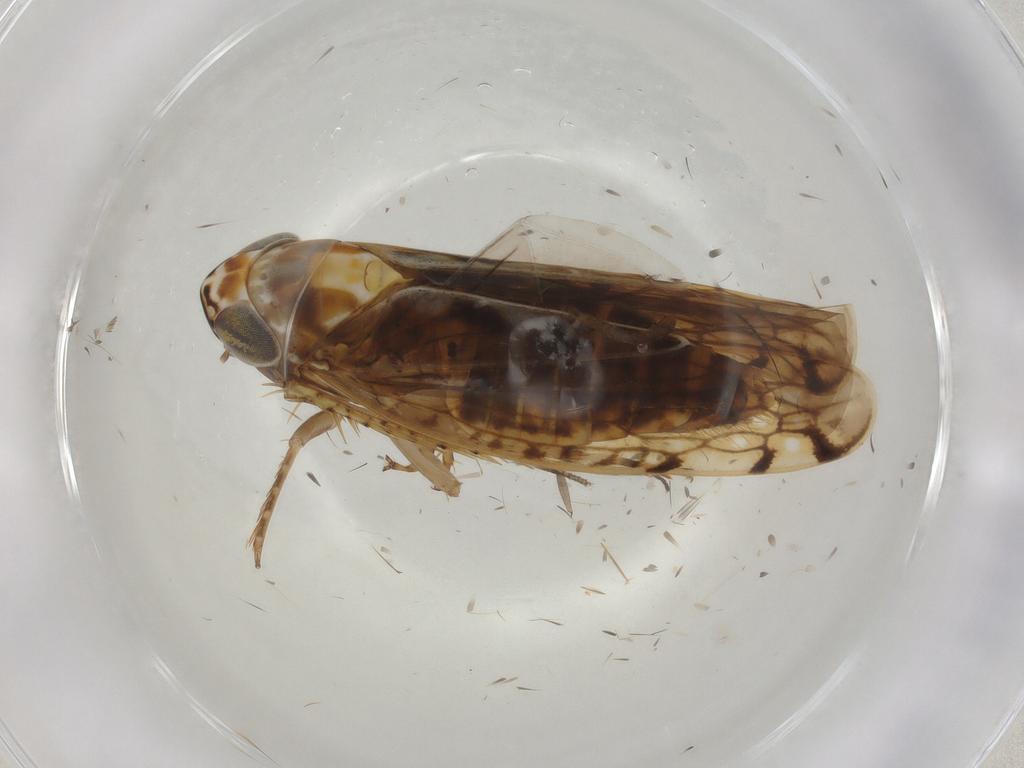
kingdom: Animalia
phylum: Arthropoda
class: Insecta
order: Hemiptera
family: Cicadellidae
